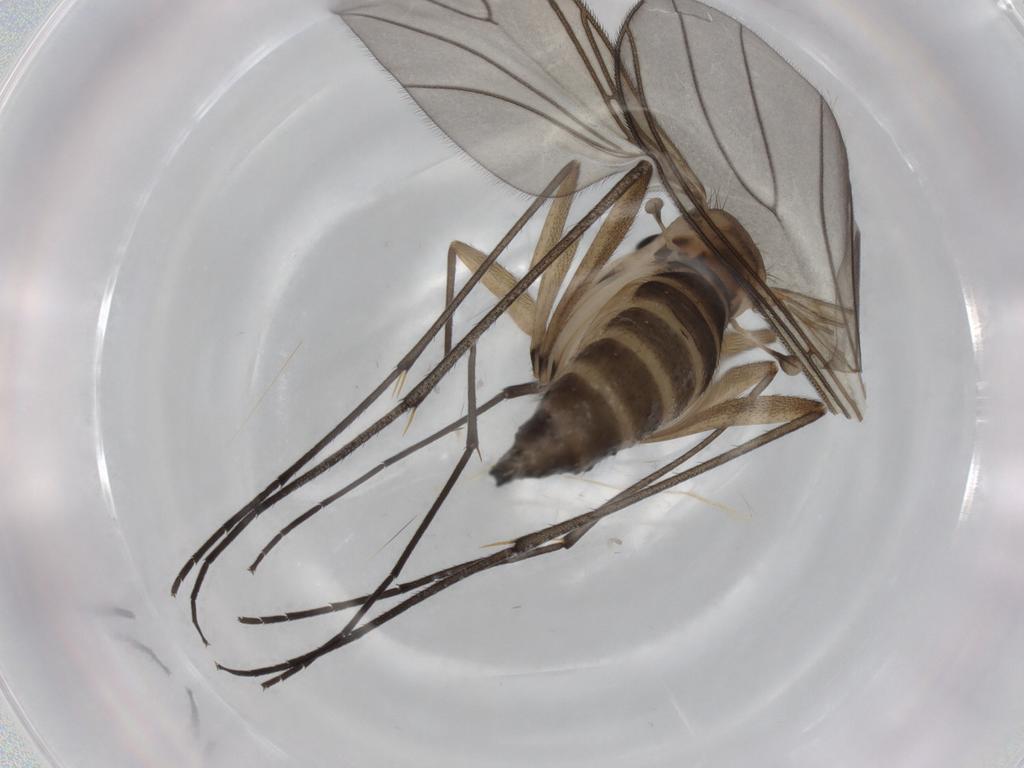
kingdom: Animalia
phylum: Arthropoda
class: Insecta
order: Diptera
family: Sciaridae
